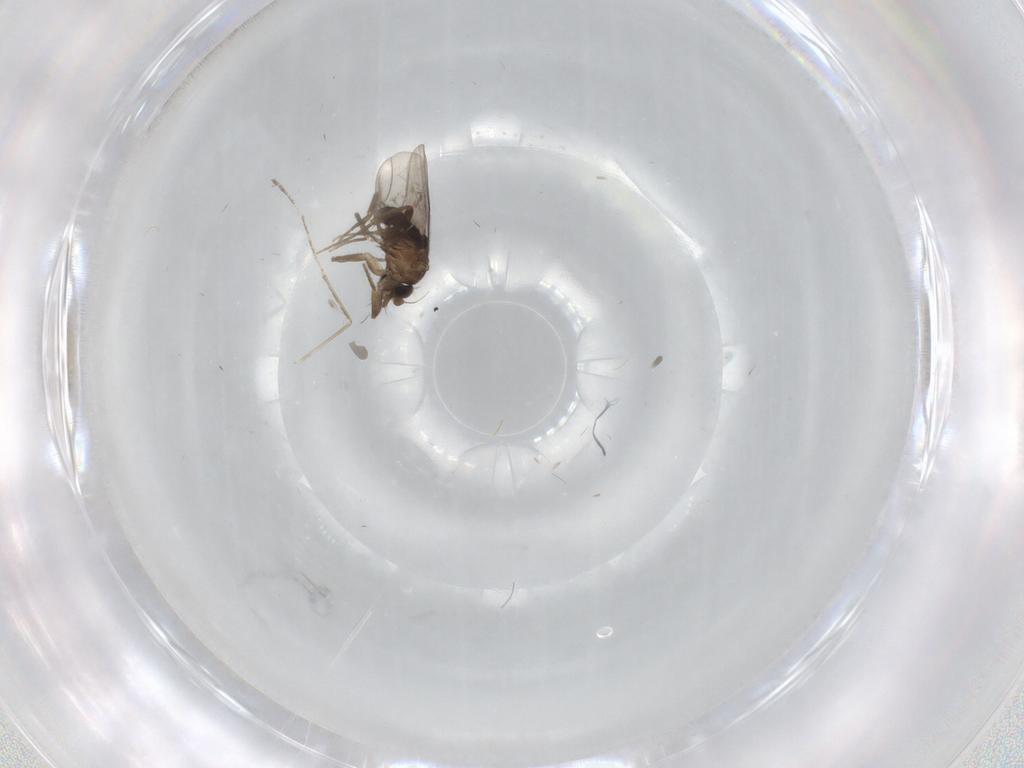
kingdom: Animalia
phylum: Arthropoda
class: Insecta
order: Diptera
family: Phoridae
